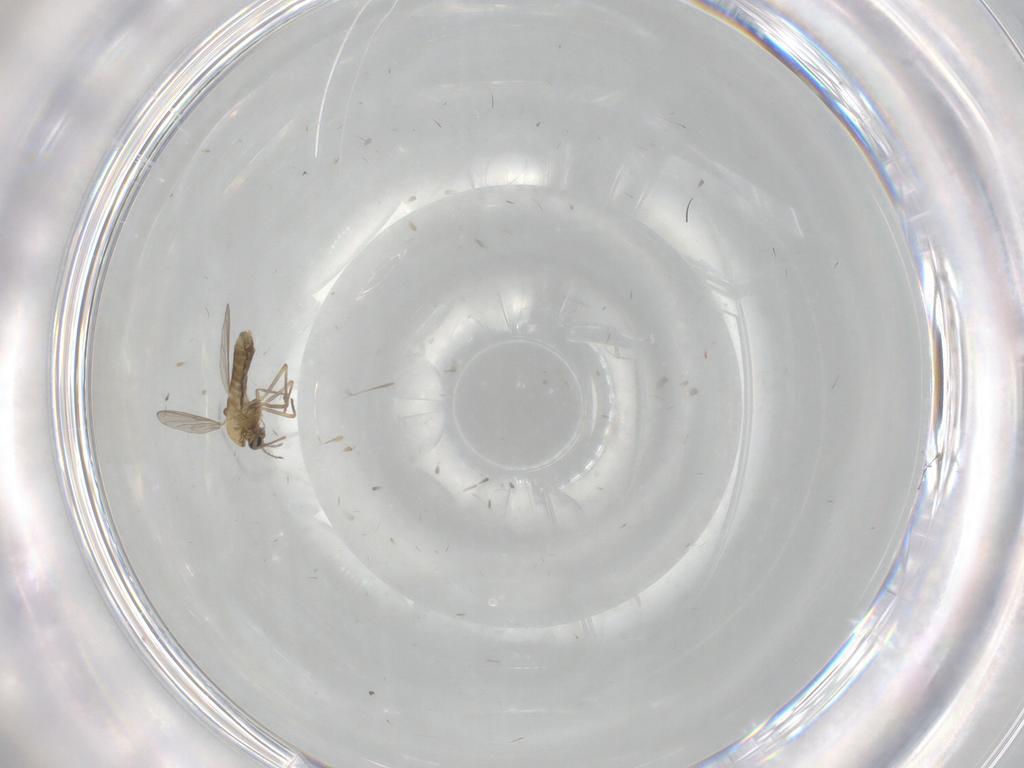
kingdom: Animalia
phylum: Arthropoda
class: Insecta
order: Diptera
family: Chironomidae
